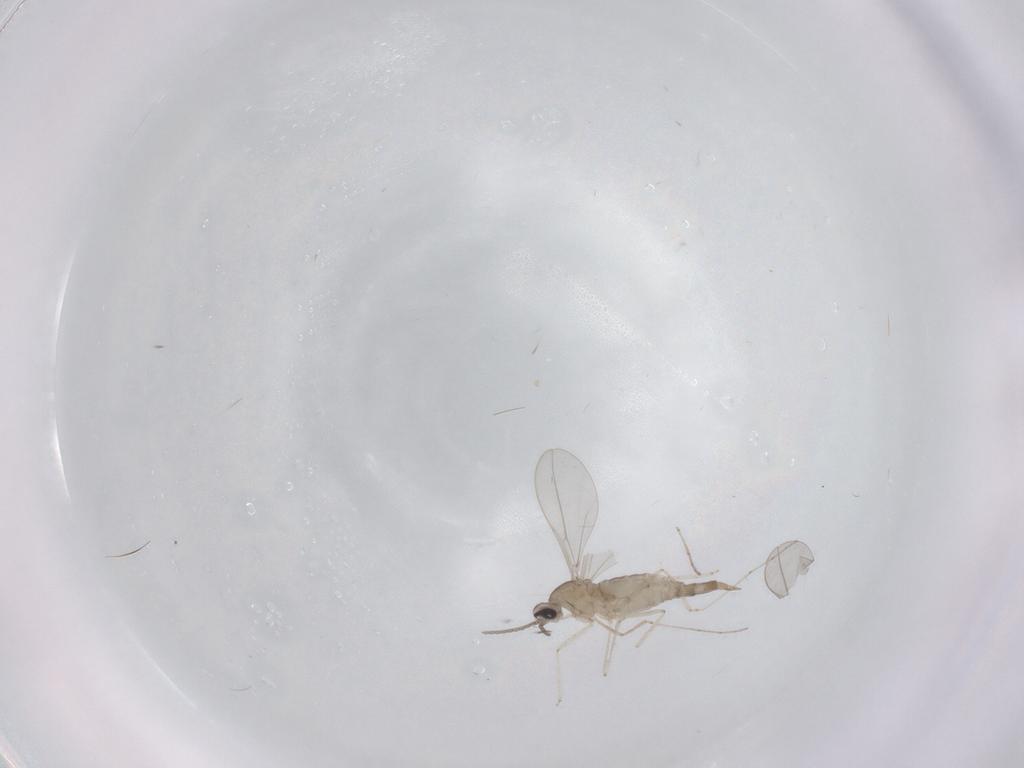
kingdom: Animalia
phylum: Arthropoda
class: Insecta
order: Diptera
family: Cecidomyiidae
